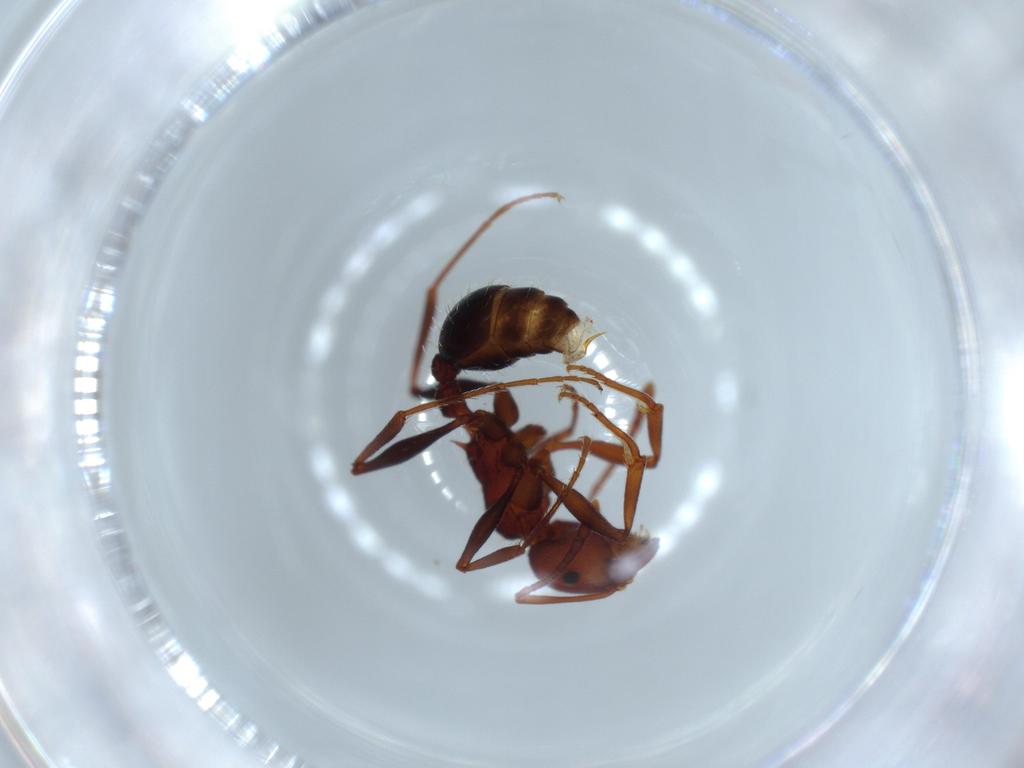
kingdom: Animalia
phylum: Arthropoda
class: Insecta
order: Hymenoptera
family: Formicidae
